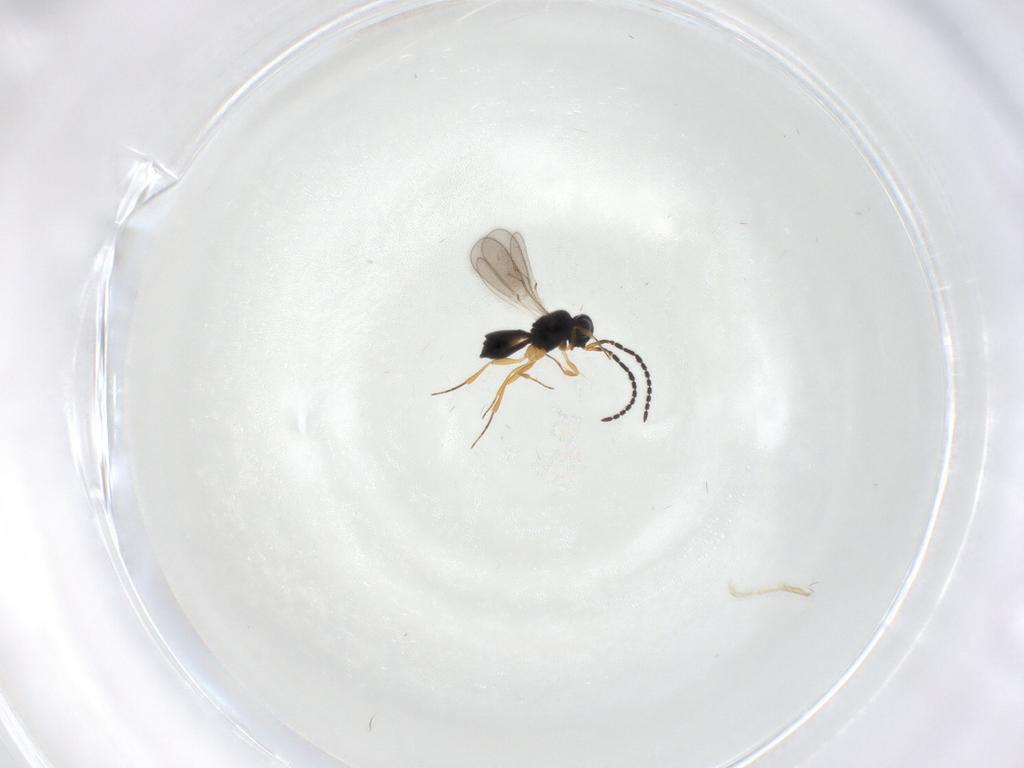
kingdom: Animalia
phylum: Arthropoda
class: Insecta
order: Hymenoptera
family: Scelionidae
